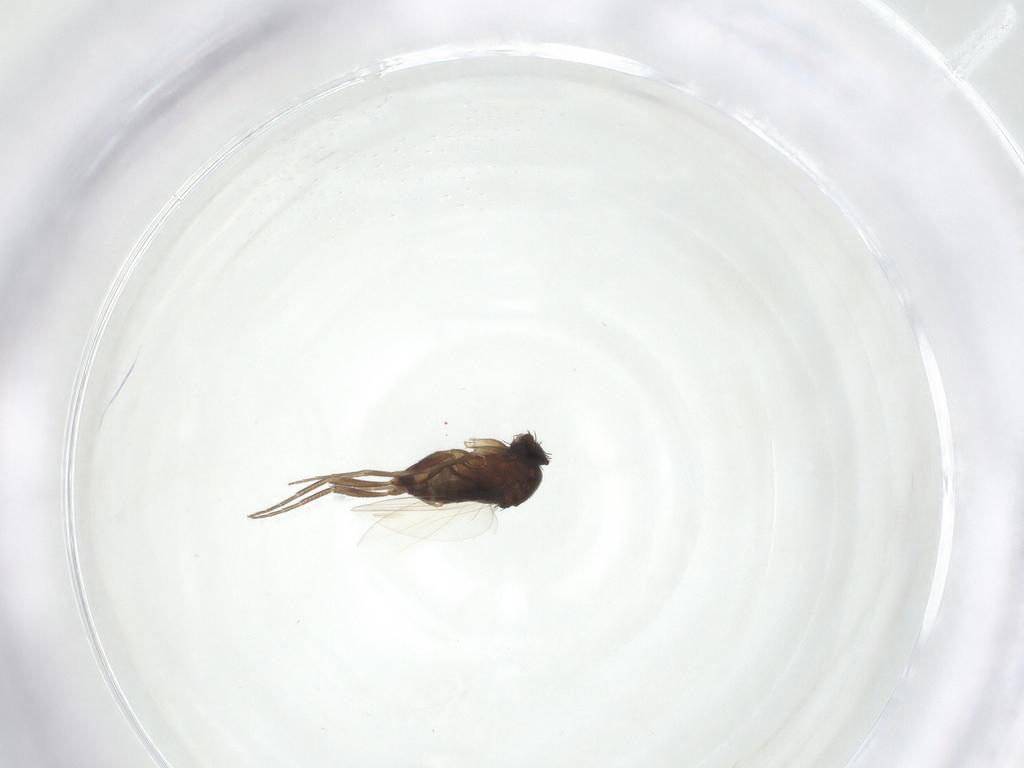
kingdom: Animalia
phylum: Arthropoda
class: Insecta
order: Diptera
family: Phoridae
